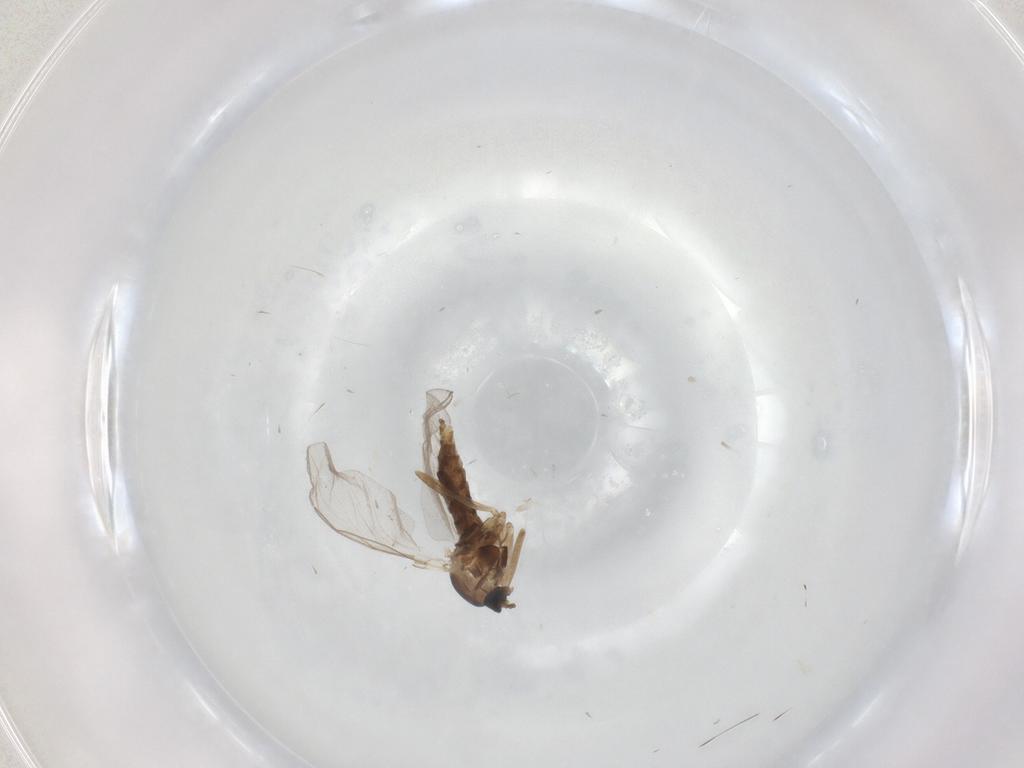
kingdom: Animalia
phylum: Arthropoda
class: Insecta
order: Diptera
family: Cecidomyiidae
